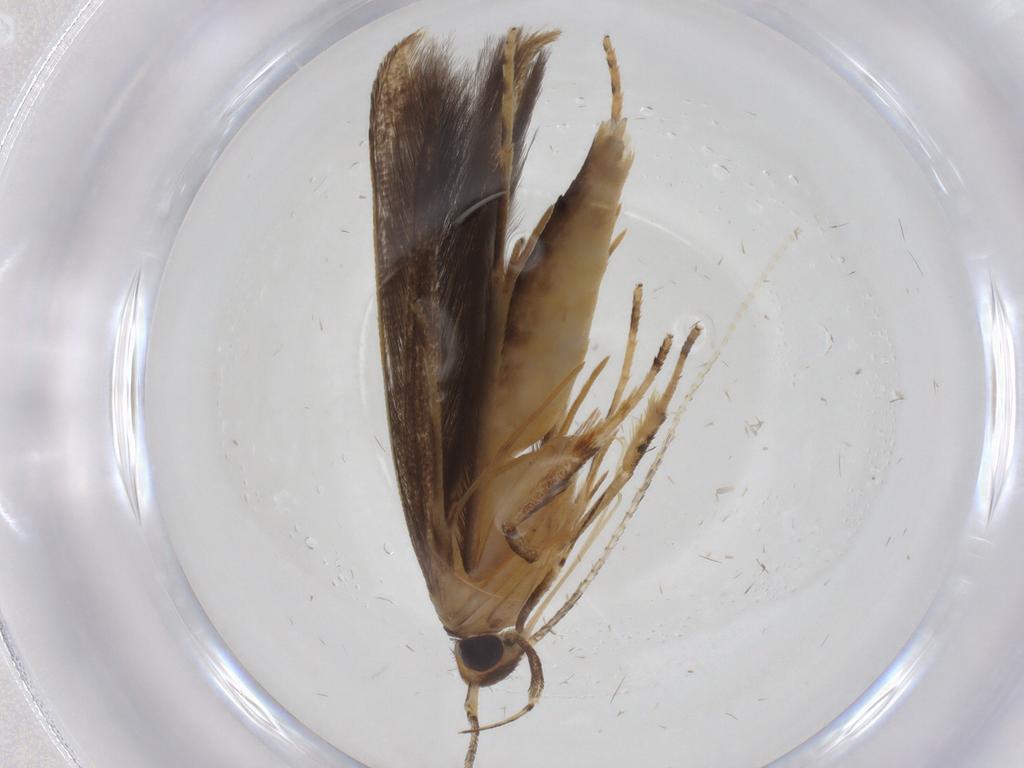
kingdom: Animalia
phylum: Arthropoda
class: Insecta
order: Lepidoptera
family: Pterolonchidae
